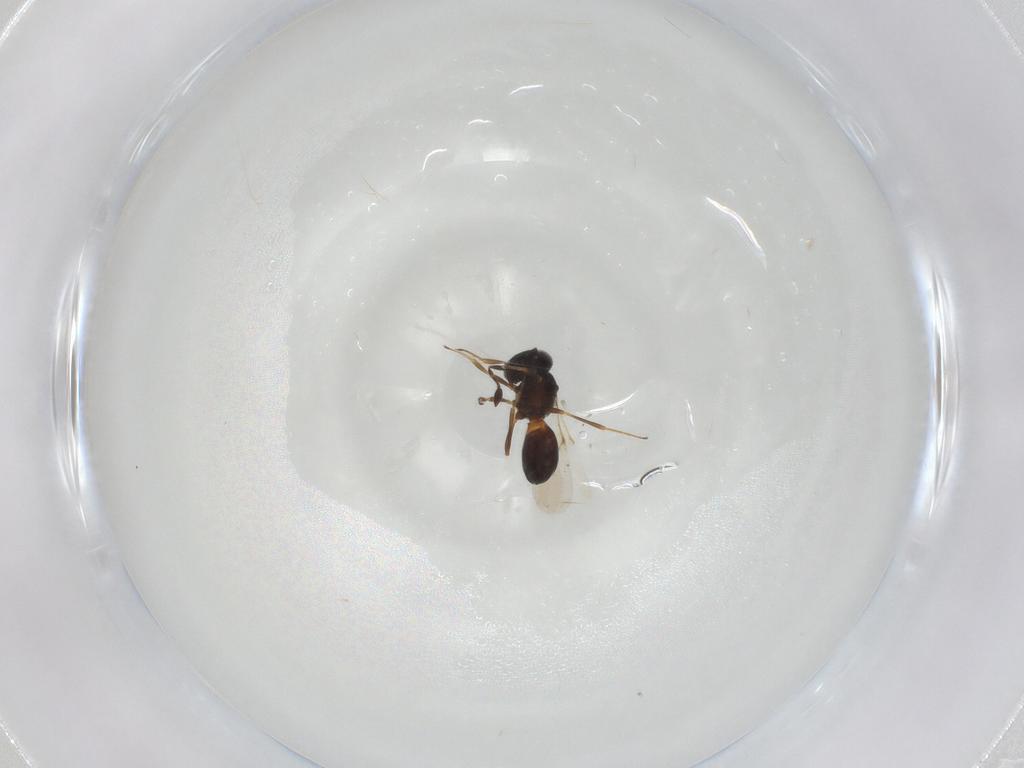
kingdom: Animalia
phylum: Arthropoda
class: Insecta
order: Hymenoptera
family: Scelionidae
